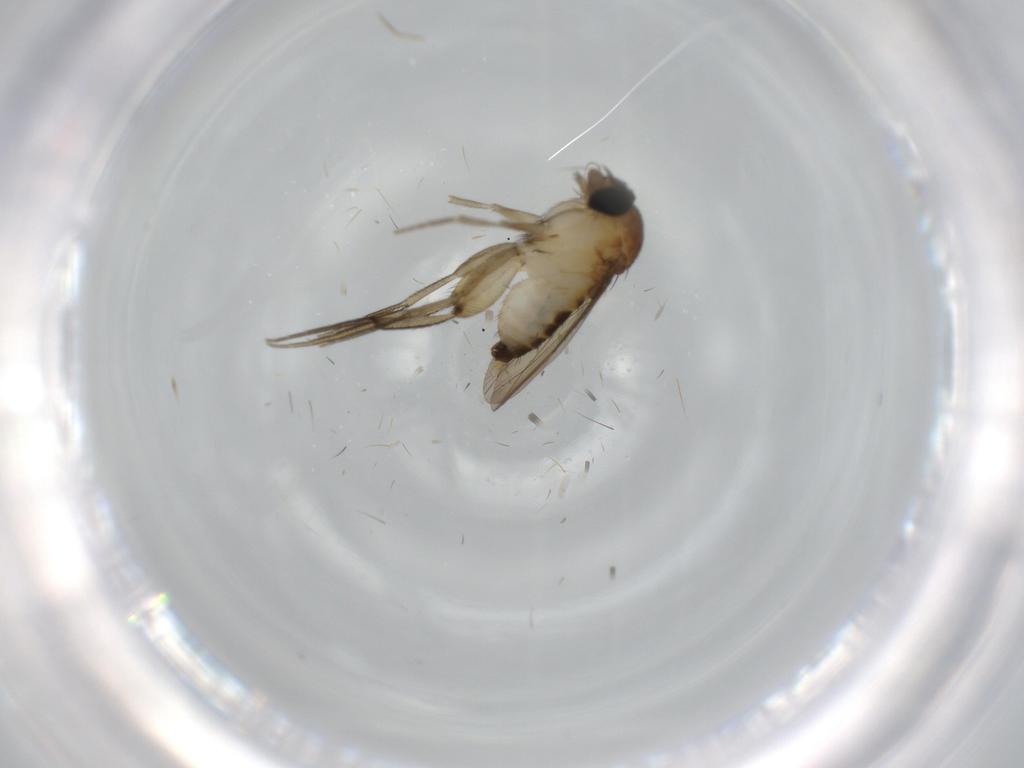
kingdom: Animalia
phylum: Arthropoda
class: Insecta
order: Diptera
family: Phoridae
